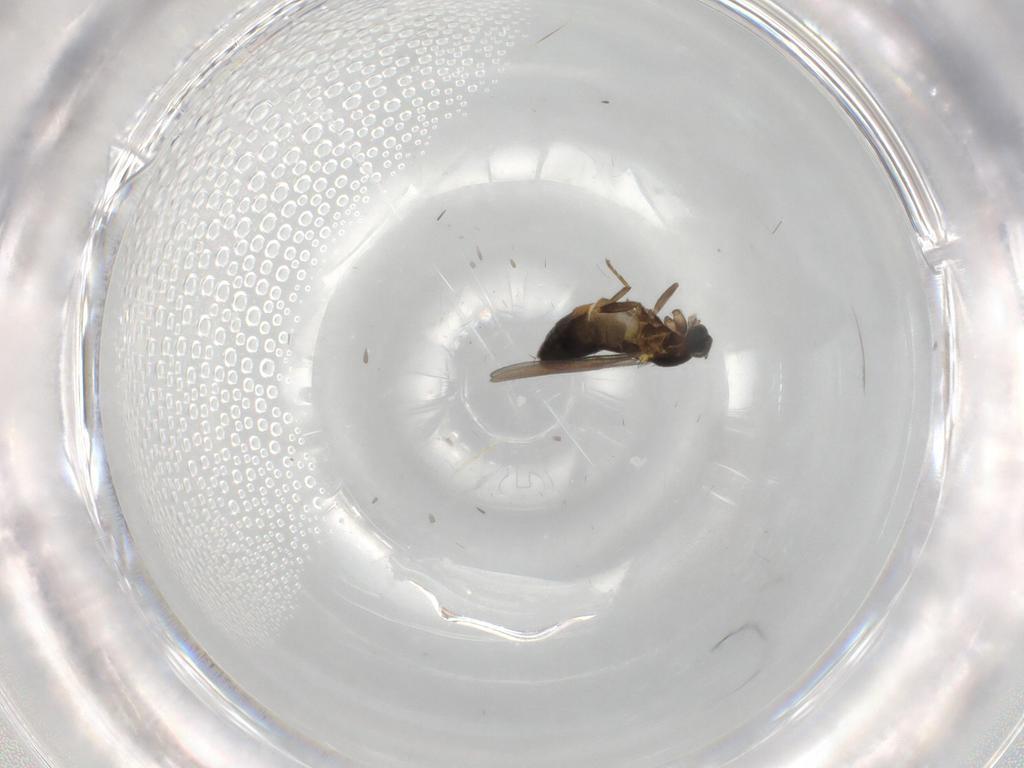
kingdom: Animalia
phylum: Arthropoda
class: Insecta
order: Diptera
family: Scatopsidae
